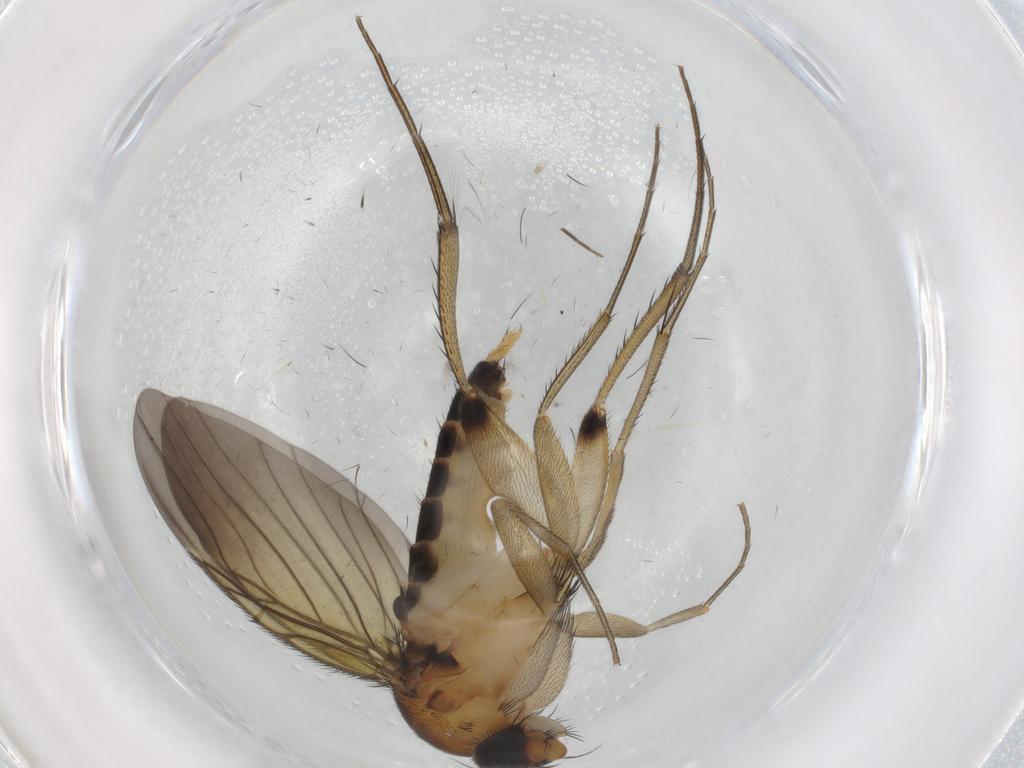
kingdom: Animalia
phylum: Arthropoda
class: Insecta
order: Diptera
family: Phoridae
